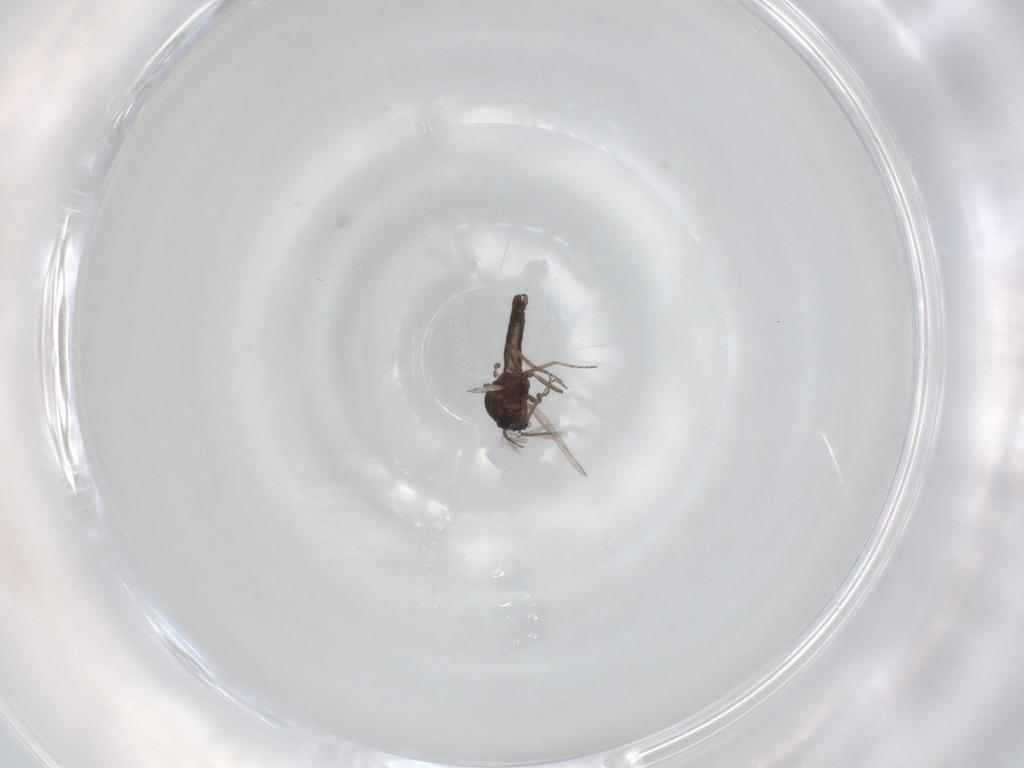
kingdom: Animalia
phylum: Arthropoda
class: Insecta
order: Diptera
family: Ceratopogonidae
